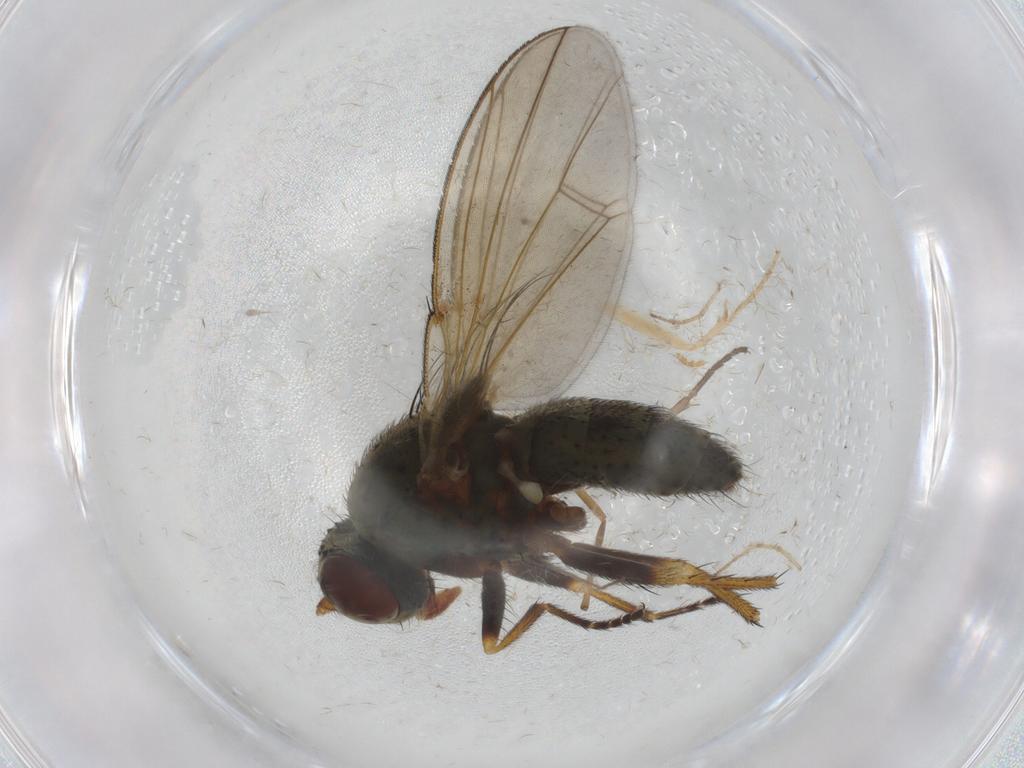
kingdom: Animalia
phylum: Arthropoda
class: Insecta
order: Diptera
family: Ephydridae
